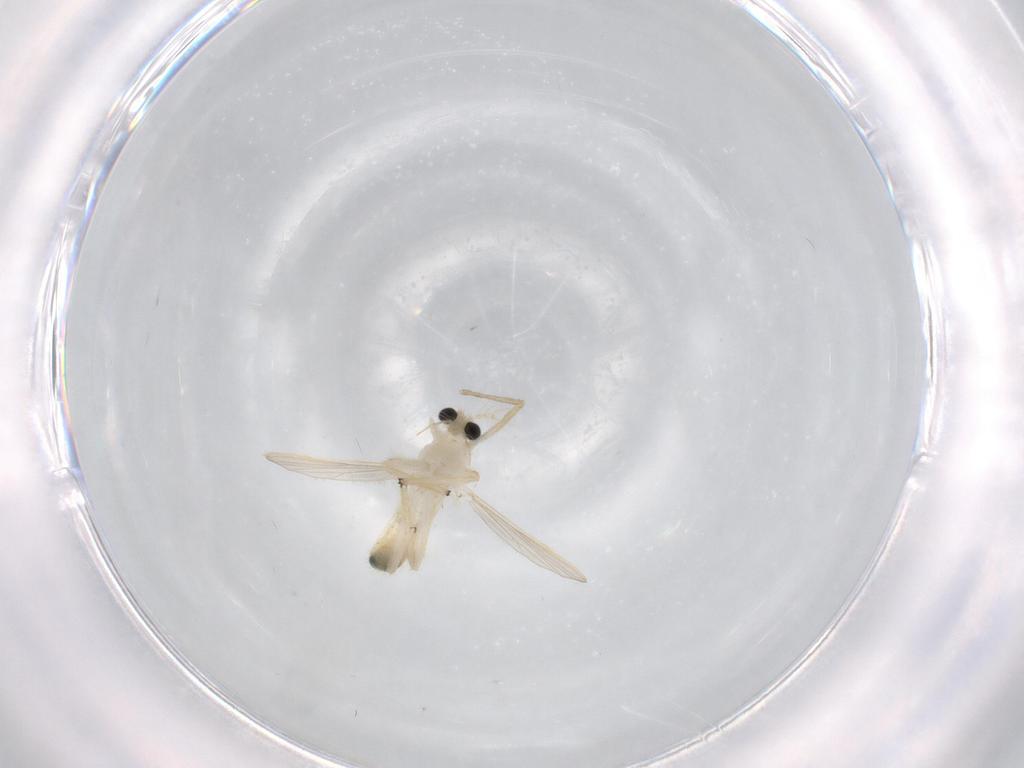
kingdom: Animalia
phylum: Arthropoda
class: Insecta
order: Diptera
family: Chironomidae
